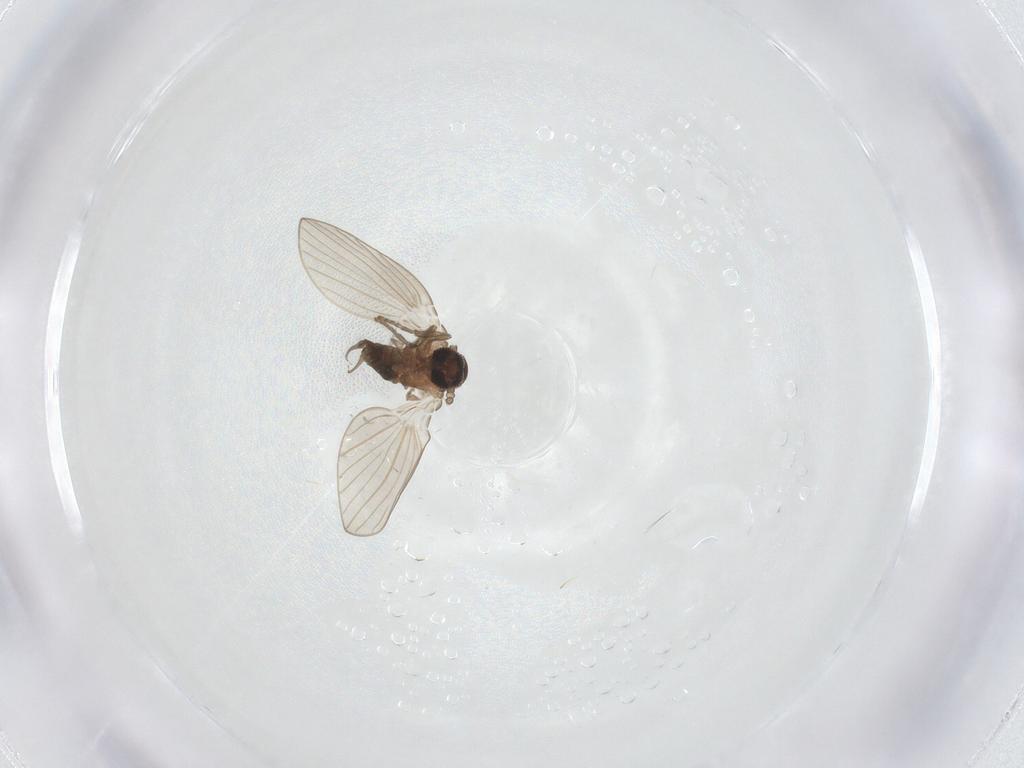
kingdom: Animalia
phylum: Arthropoda
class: Insecta
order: Diptera
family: Psychodidae
